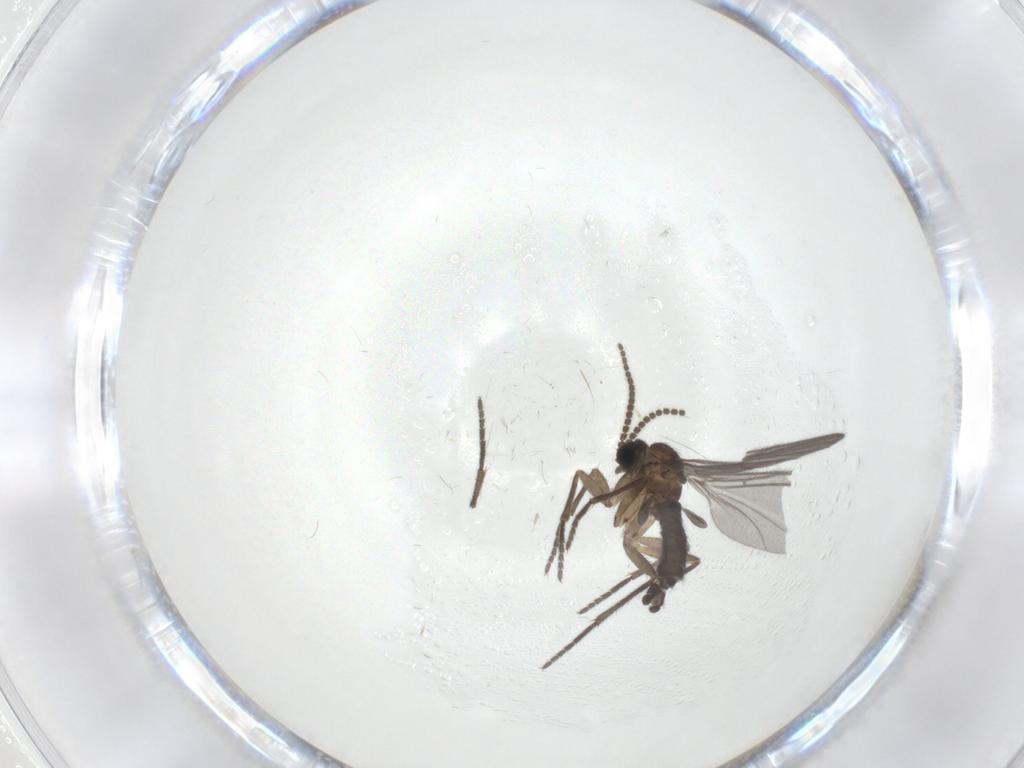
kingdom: Animalia
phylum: Arthropoda
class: Insecta
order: Diptera
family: Sciaridae
